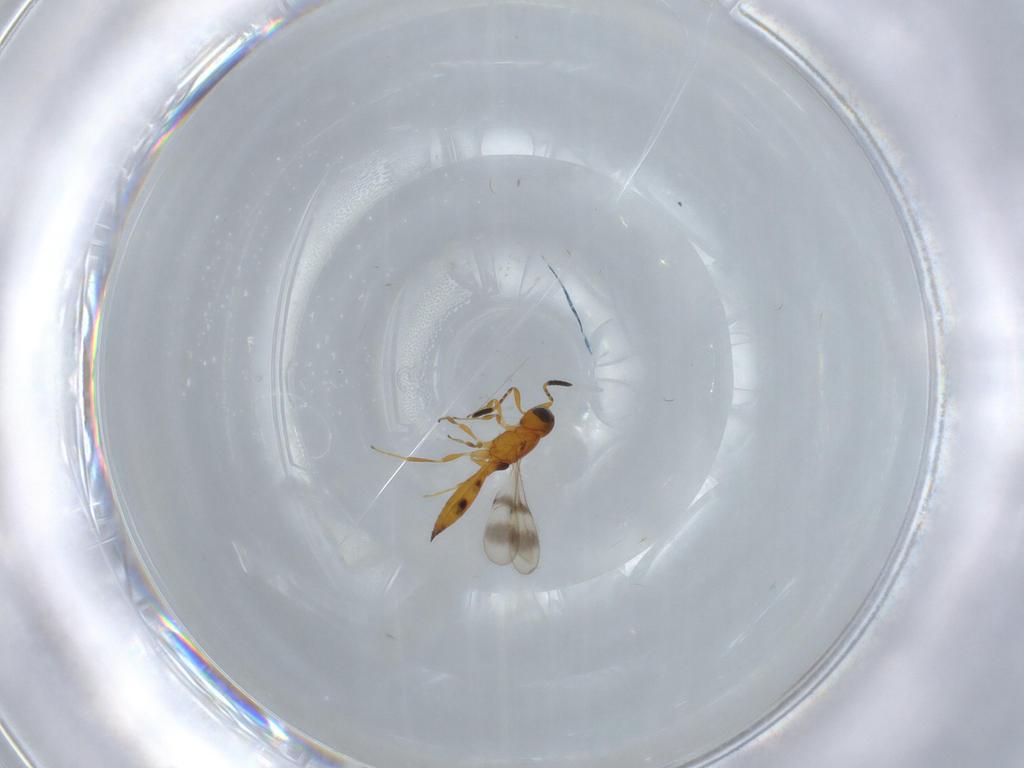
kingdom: Animalia
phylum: Arthropoda
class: Insecta
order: Hymenoptera
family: Scelionidae
